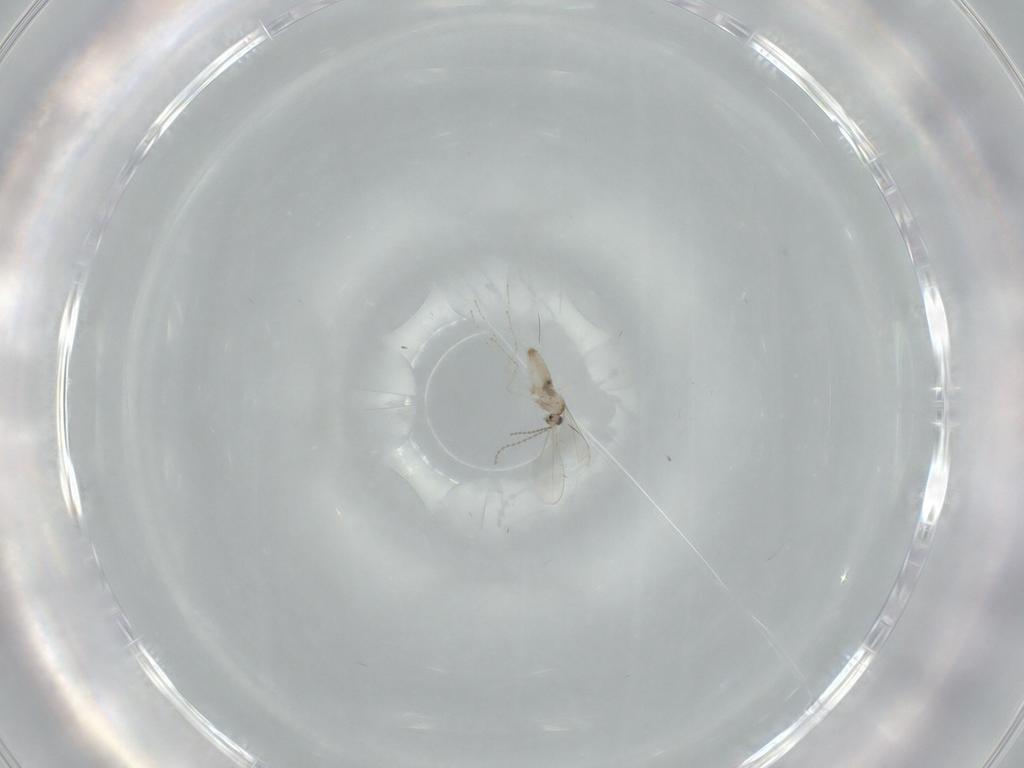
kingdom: Animalia
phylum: Arthropoda
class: Insecta
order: Diptera
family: Cecidomyiidae
